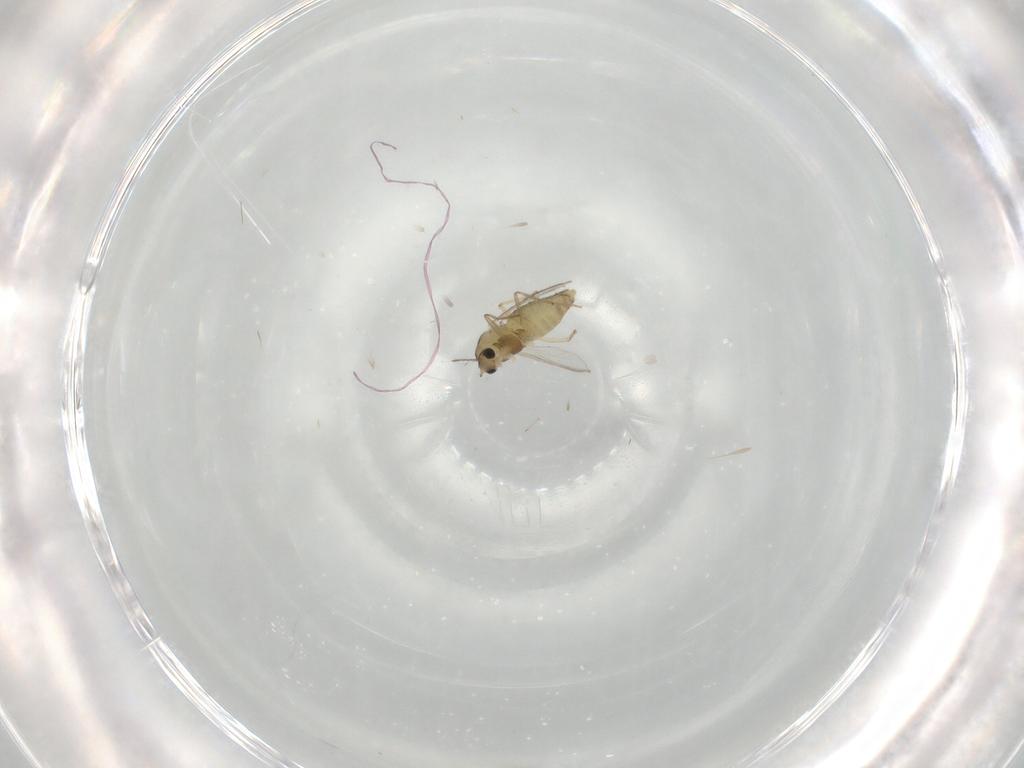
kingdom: Animalia
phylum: Arthropoda
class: Insecta
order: Diptera
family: Chironomidae
